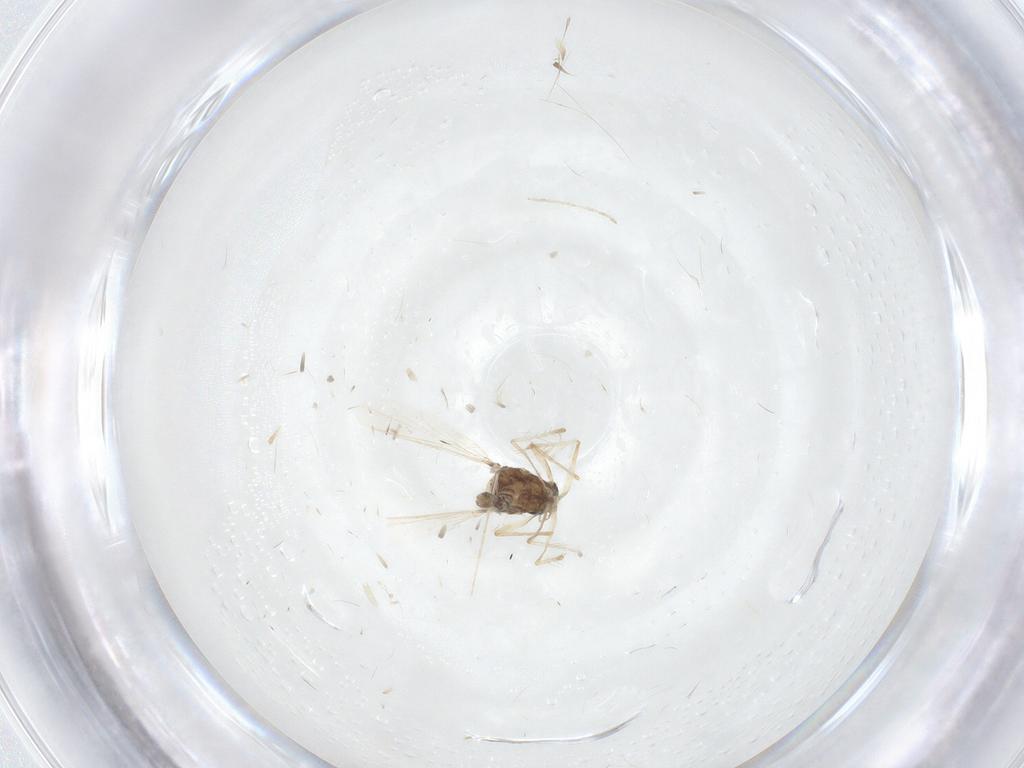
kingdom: Animalia
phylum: Arthropoda
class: Insecta
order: Diptera
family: Chironomidae
